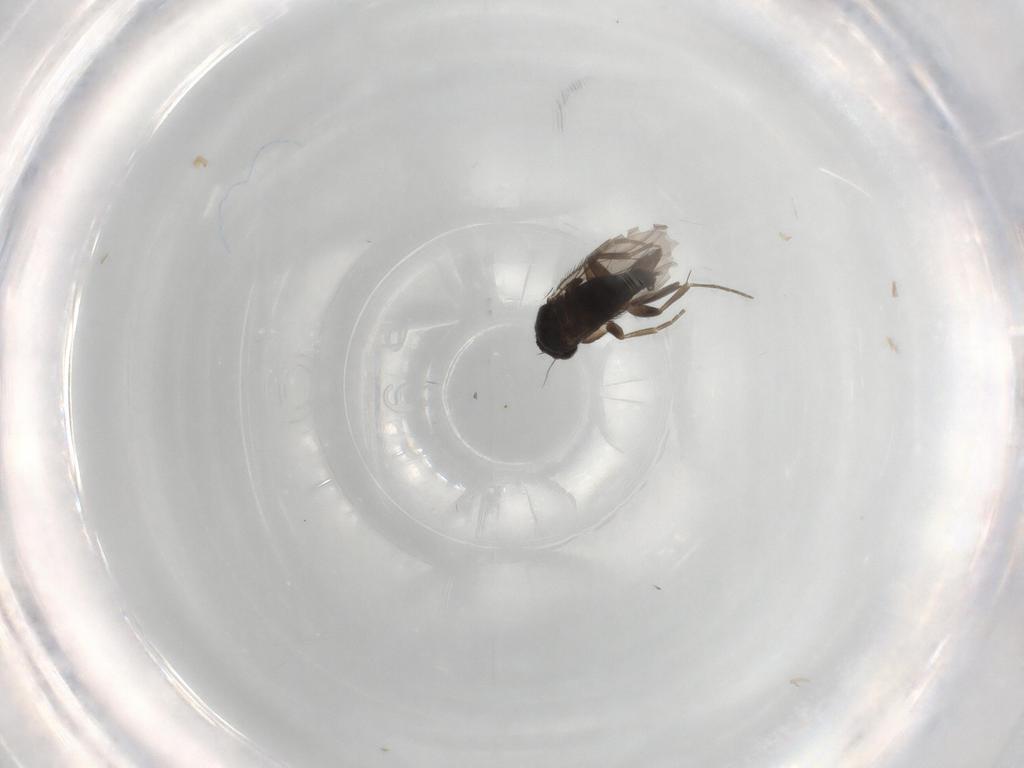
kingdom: Animalia
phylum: Arthropoda
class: Insecta
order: Diptera
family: Phoridae
